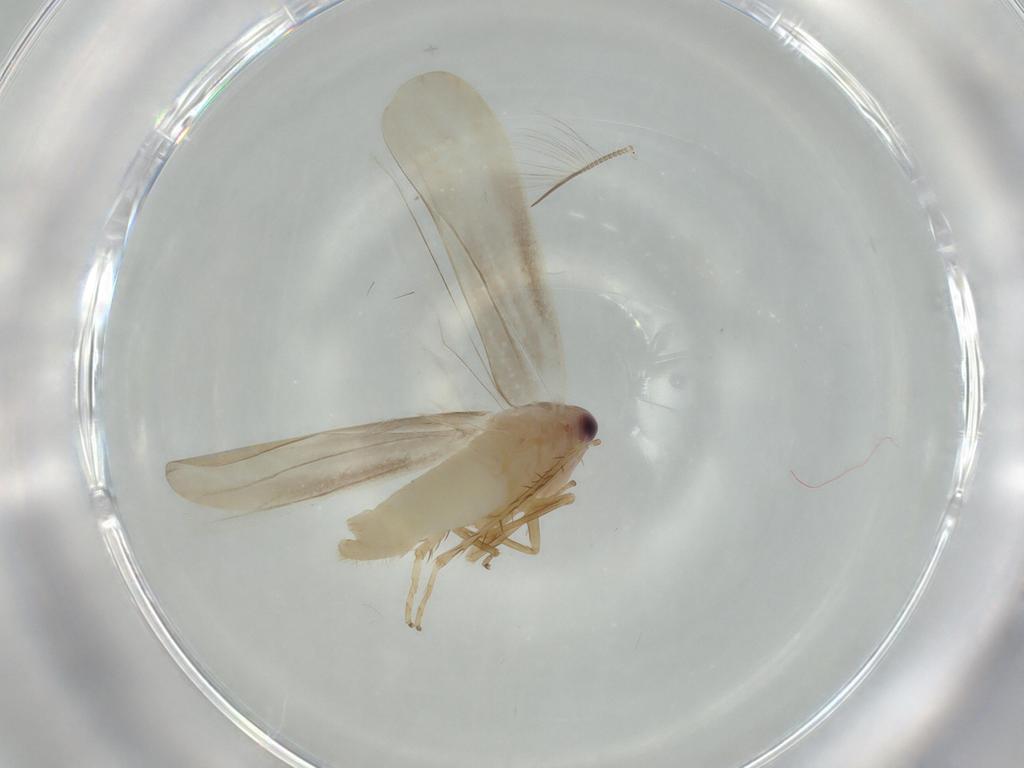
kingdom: Animalia
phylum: Arthropoda
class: Insecta
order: Hemiptera
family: Cicadellidae
